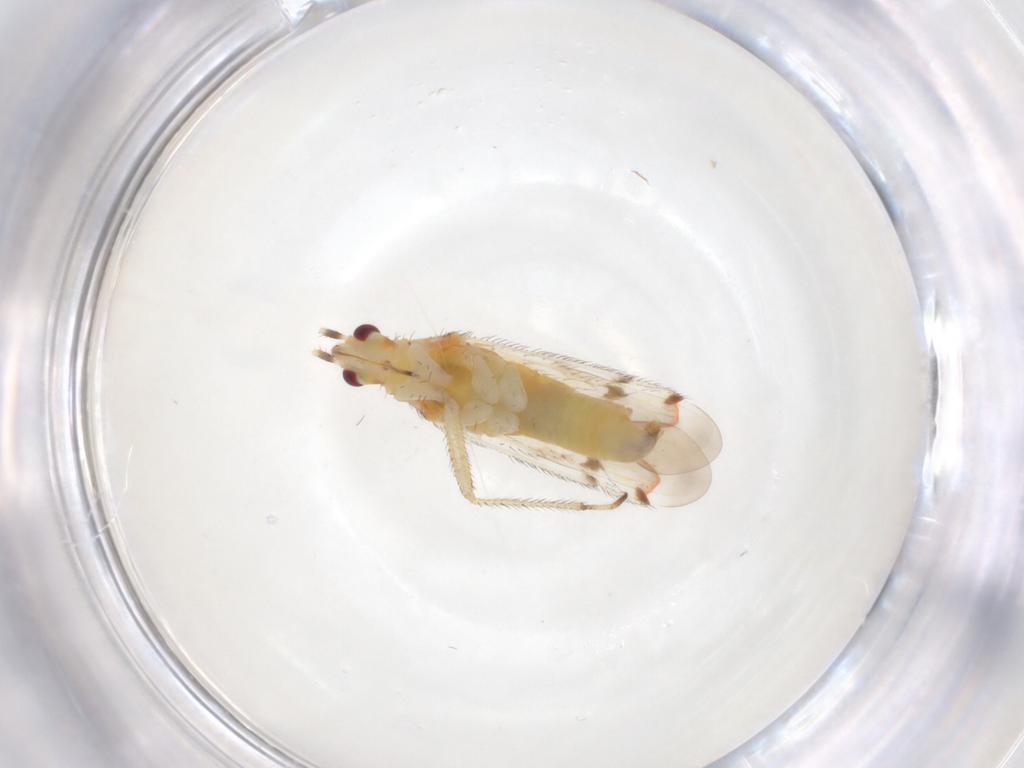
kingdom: Animalia
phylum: Arthropoda
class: Insecta
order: Hemiptera
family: Miridae
